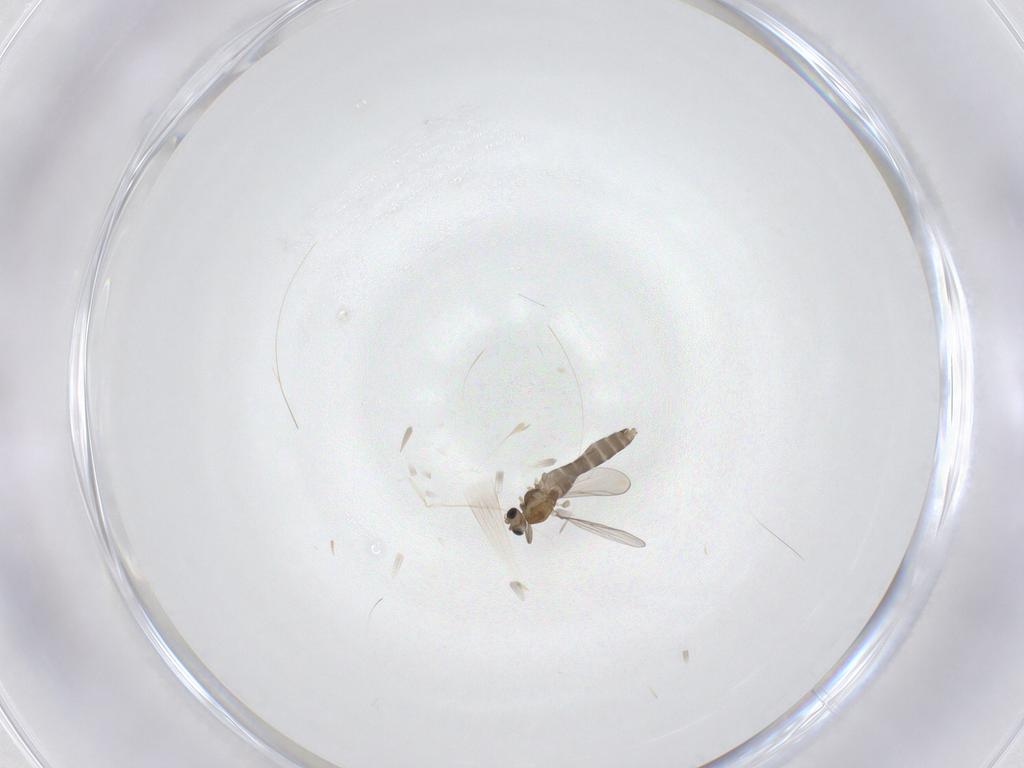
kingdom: Animalia
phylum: Arthropoda
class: Insecta
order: Diptera
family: Chironomidae
